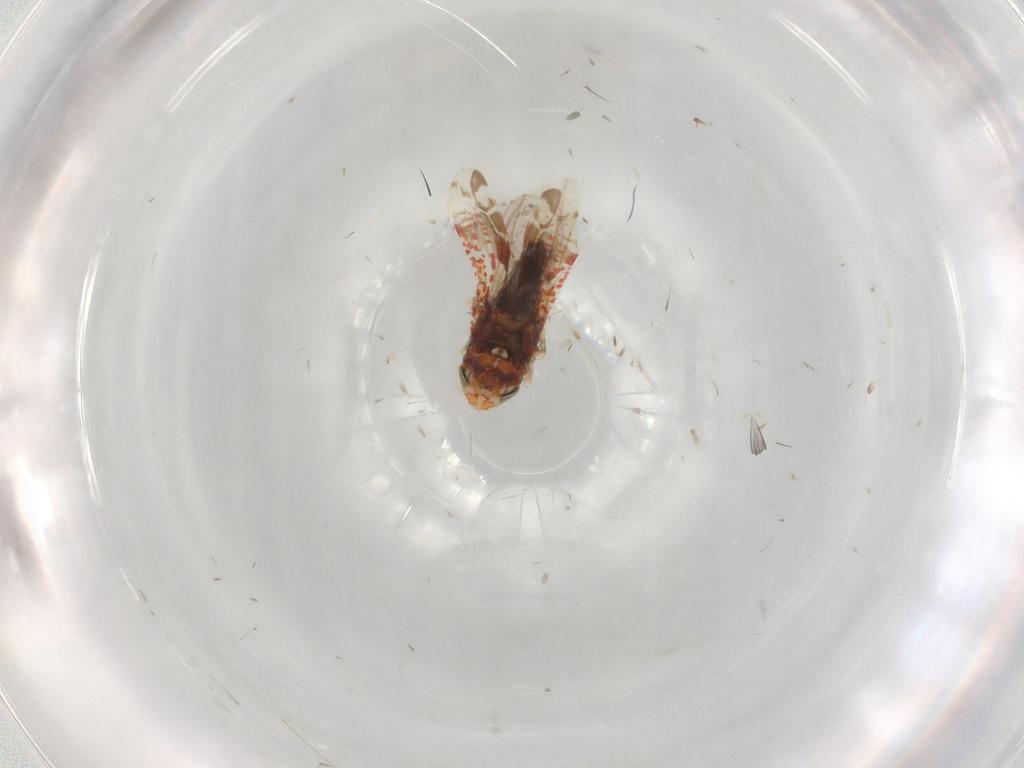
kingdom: Animalia
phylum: Arthropoda
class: Insecta
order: Hemiptera
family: Cicadellidae
